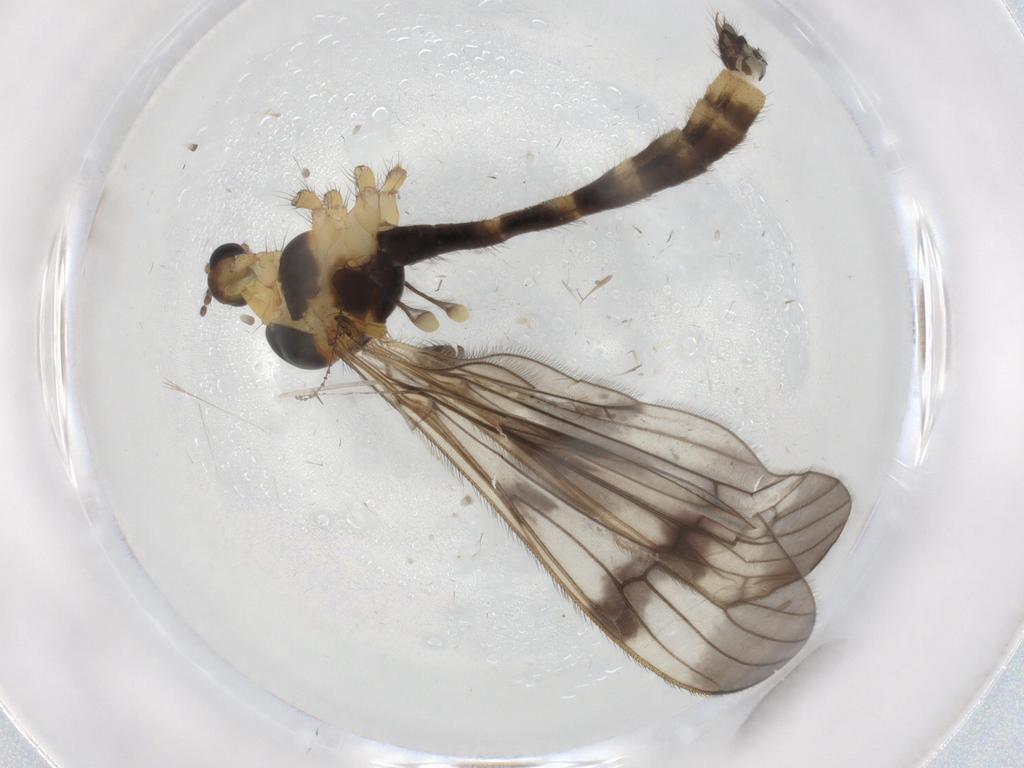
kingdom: Animalia
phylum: Arthropoda
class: Insecta
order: Diptera
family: Limoniidae
